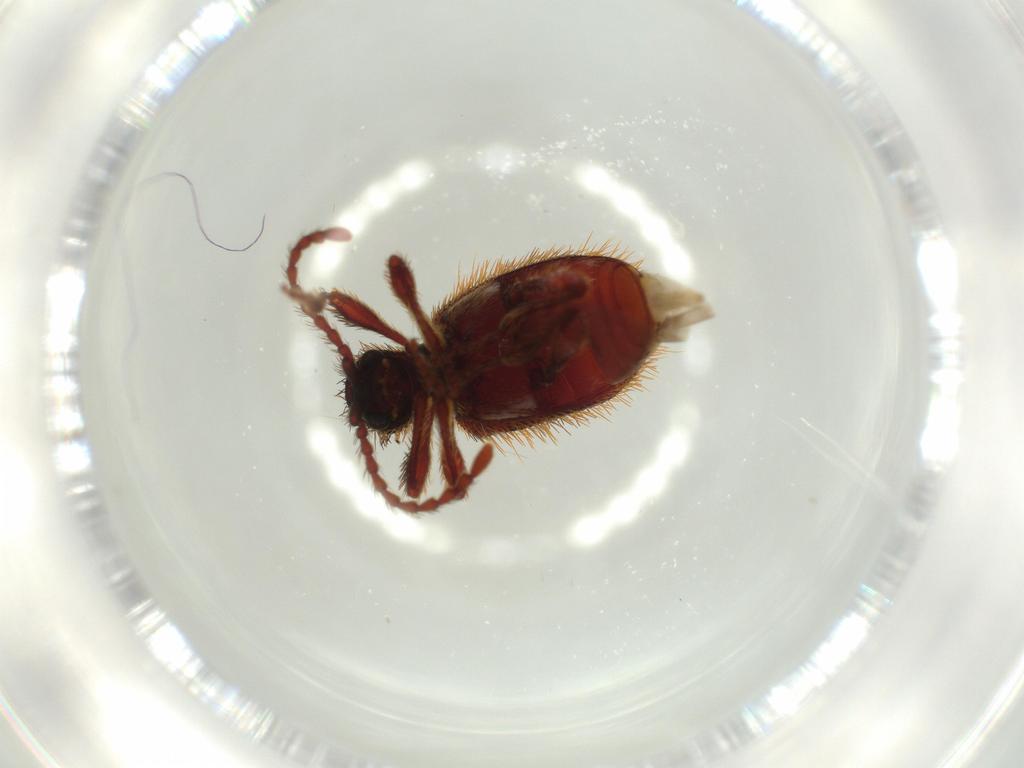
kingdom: Animalia
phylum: Arthropoda
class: Insecta
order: Coleoptera
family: Ptinidae
